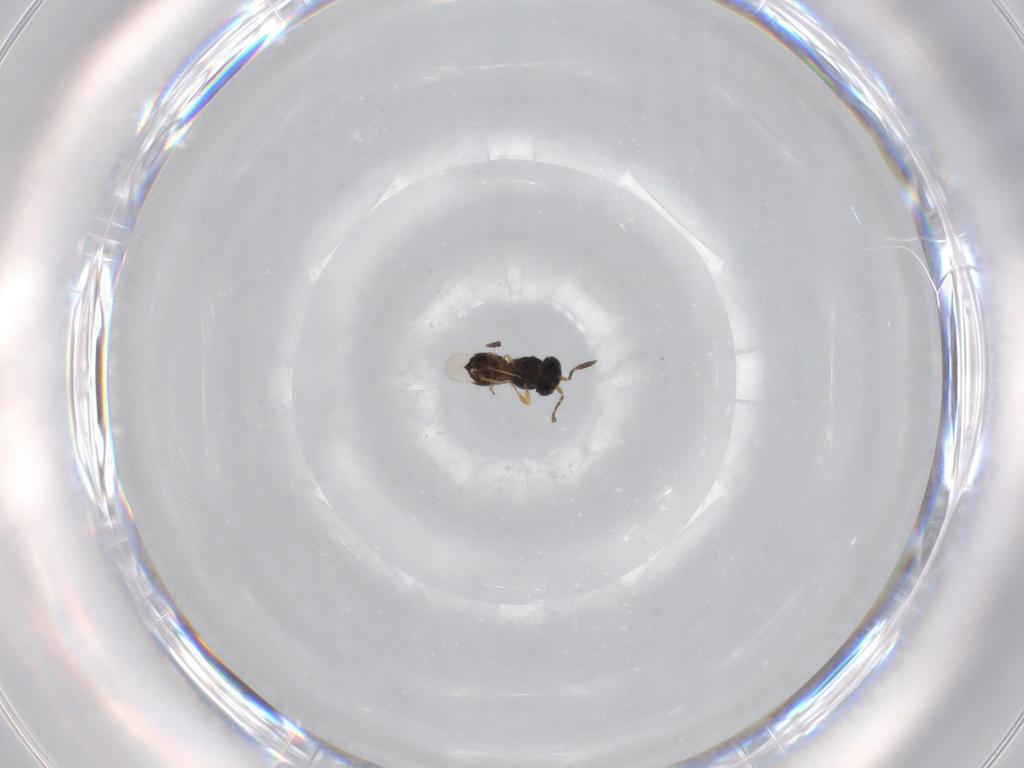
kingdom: Animalia
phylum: Arthropoda
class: Insecta
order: Hymenoptera
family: Scelionidae
